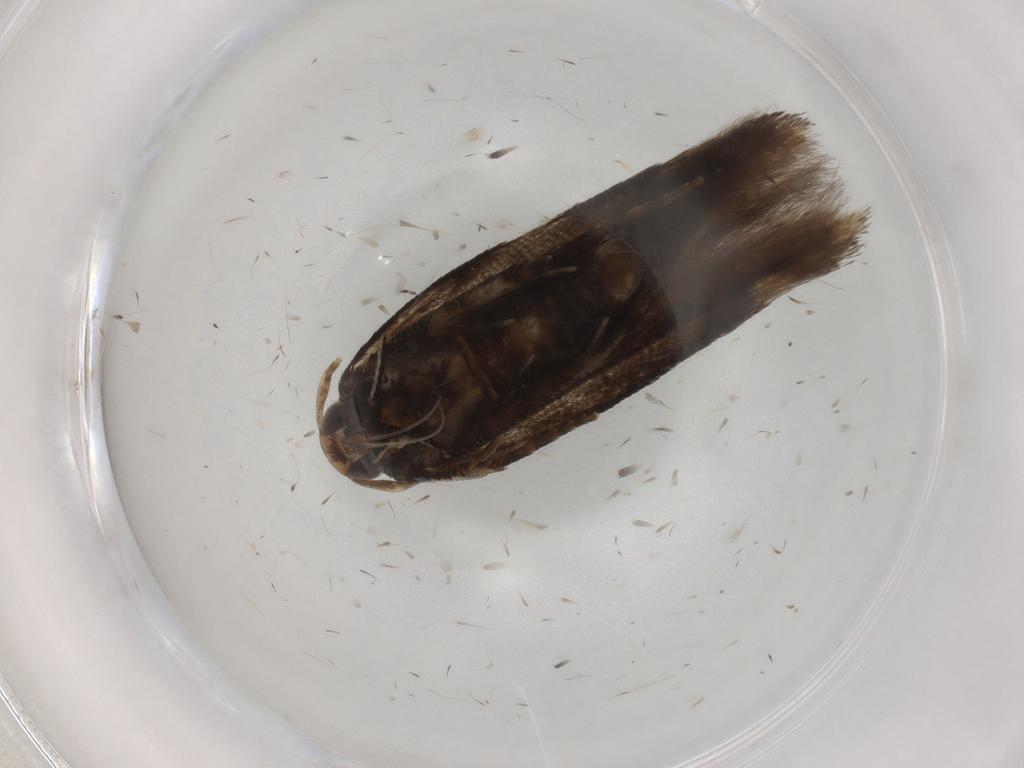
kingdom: Animalia
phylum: Arthropoda
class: Insecta
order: Lepidoptera
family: Cosmopterigidae
